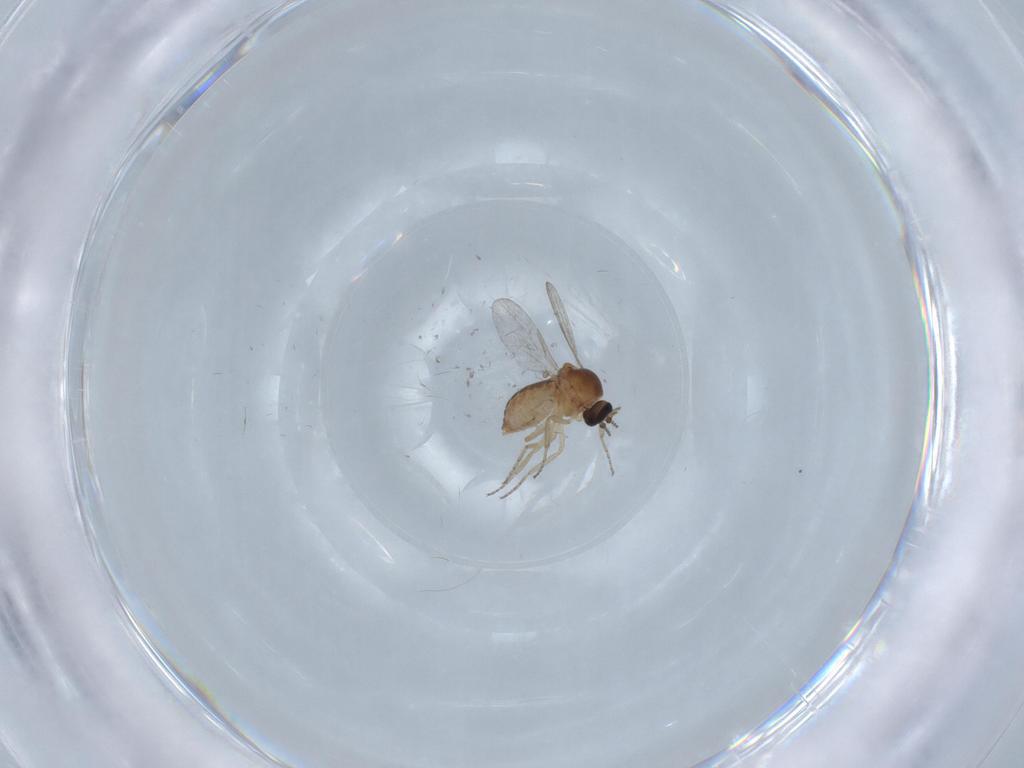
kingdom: Animalia
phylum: Arthropoda
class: Insecta
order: Diptera
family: Ceratopogonidae
